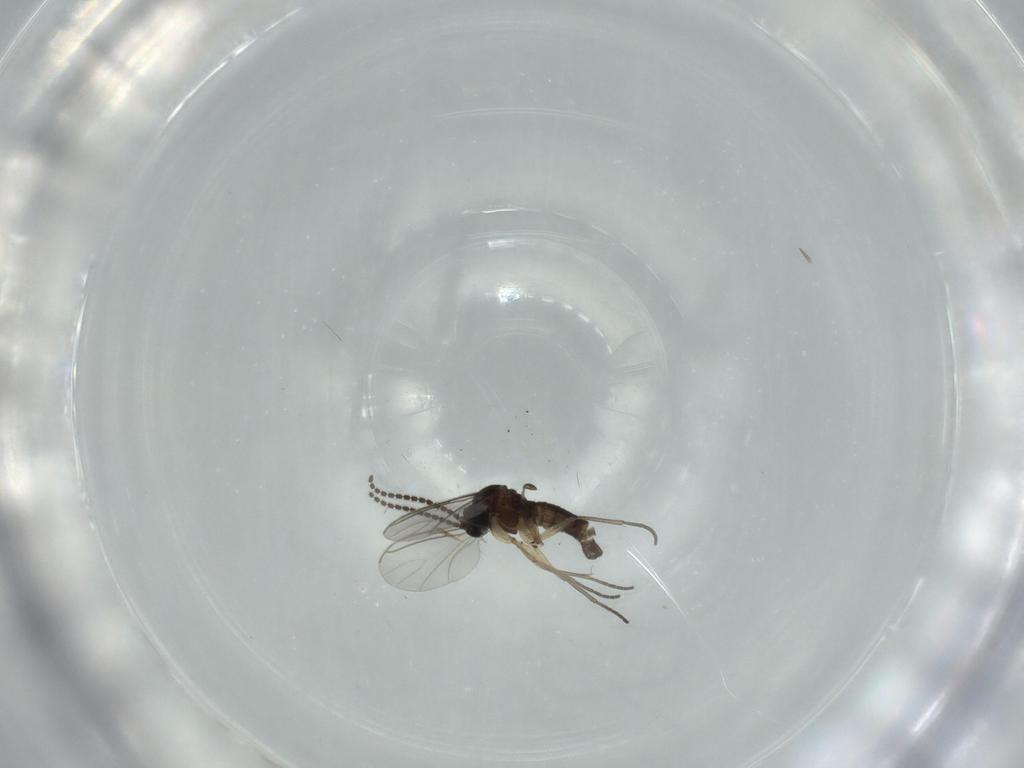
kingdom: Animalia
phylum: Arthropoda
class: Insecta
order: Diptera
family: Sciaridae
